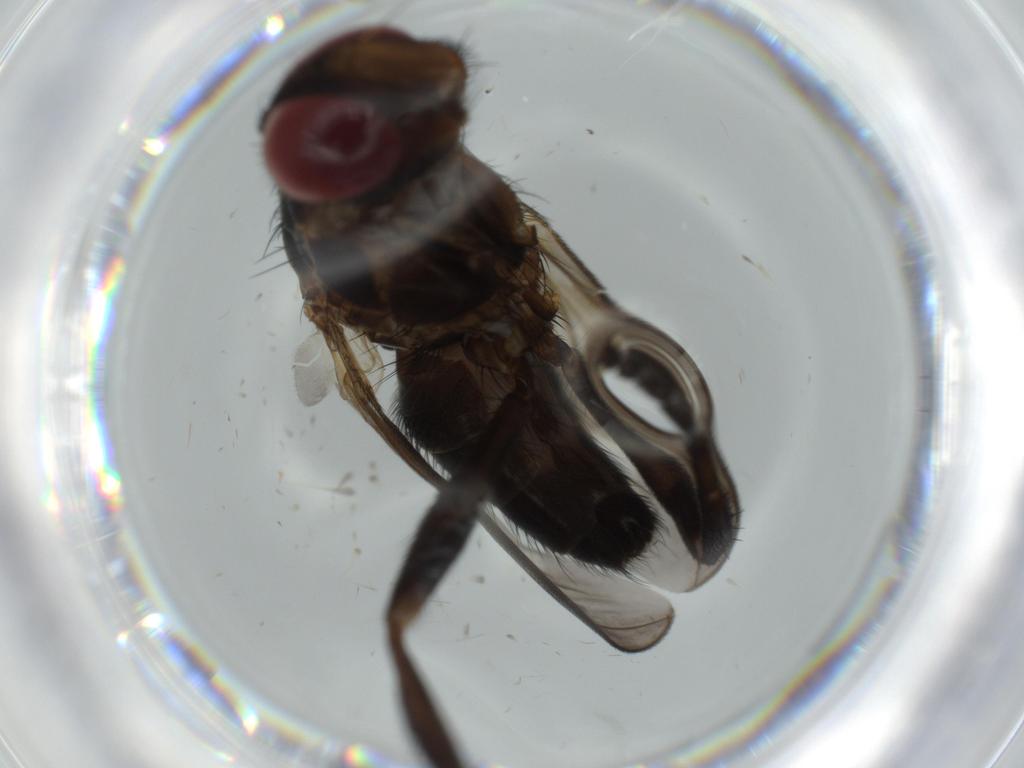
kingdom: Animalia
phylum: Arthropoda
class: Insecta
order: Diptera
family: Calliphoridae
